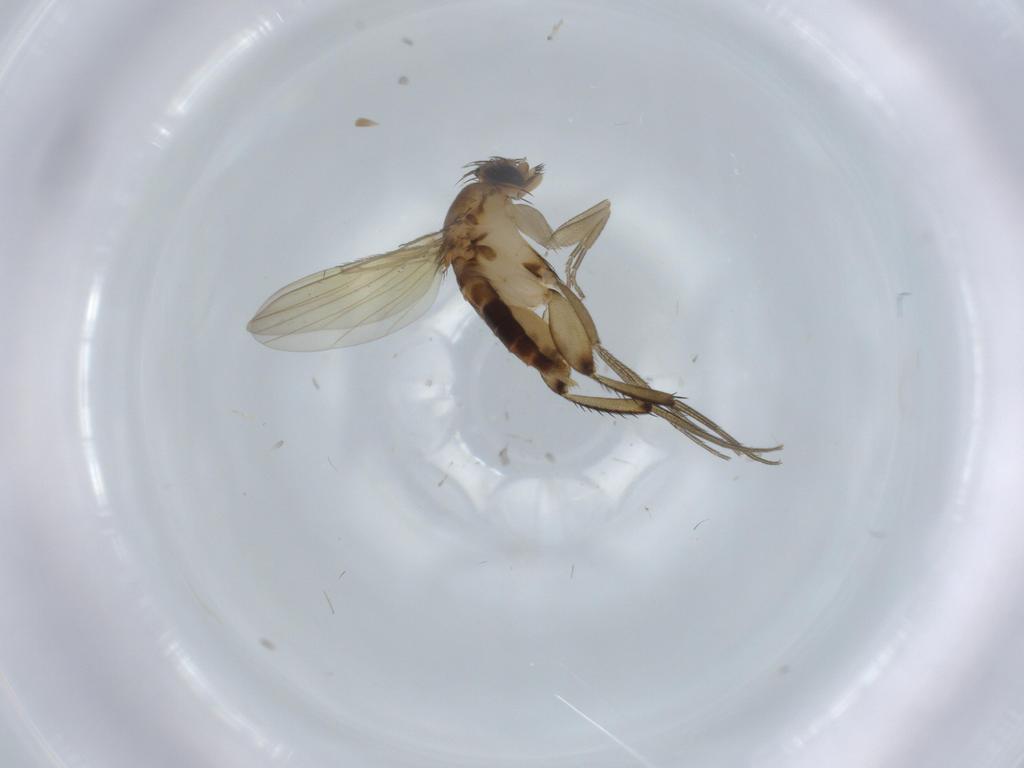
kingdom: Animalia
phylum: Arthropoda
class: Insecta
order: Diptera
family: Phoridae
